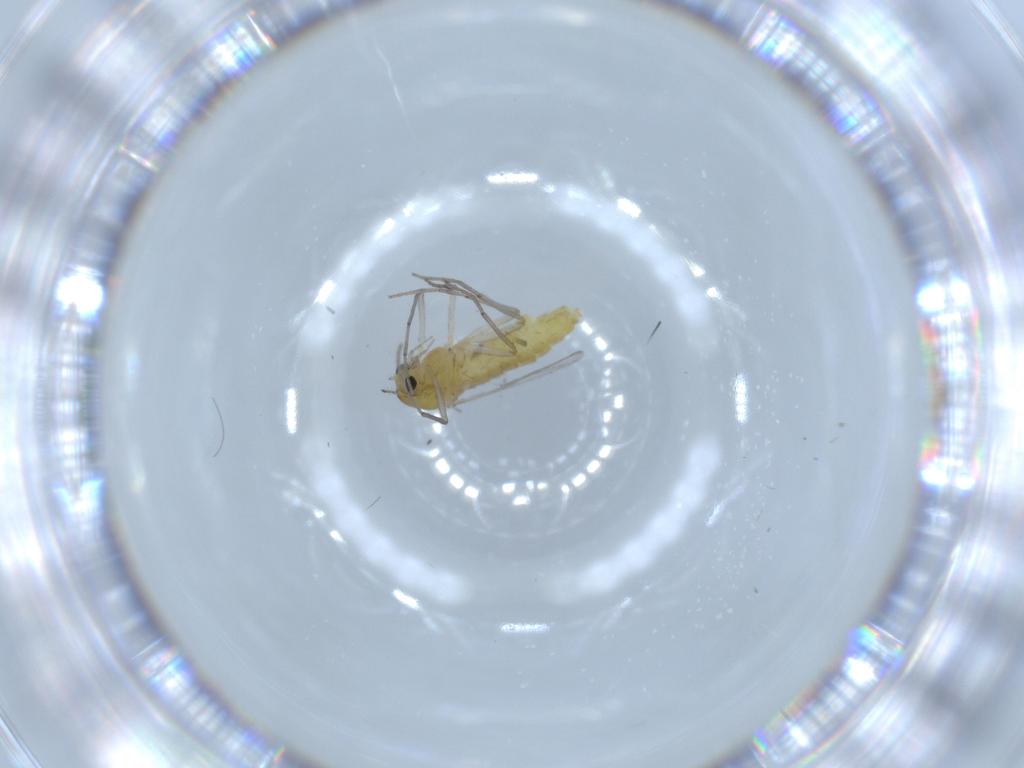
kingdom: Animalia
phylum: Arthropoda
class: Insecta
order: Diptera
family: Chironomidae
